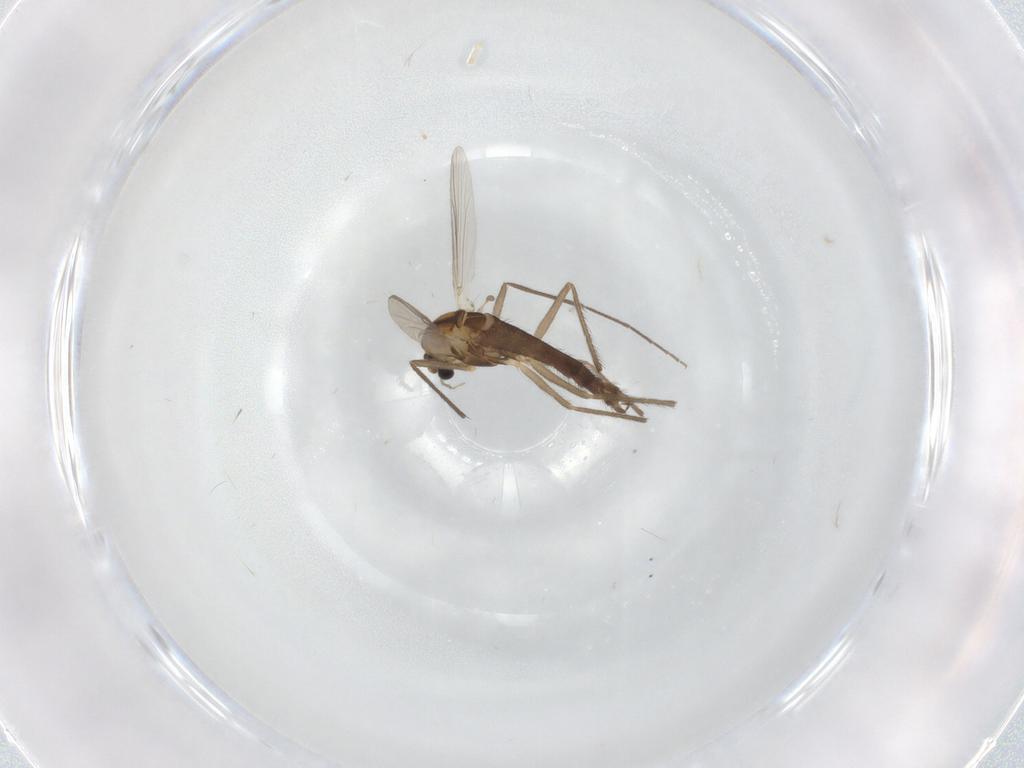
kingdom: Animalia
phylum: Arthropoda
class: Insecta
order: Diptera
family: Chironomidae
